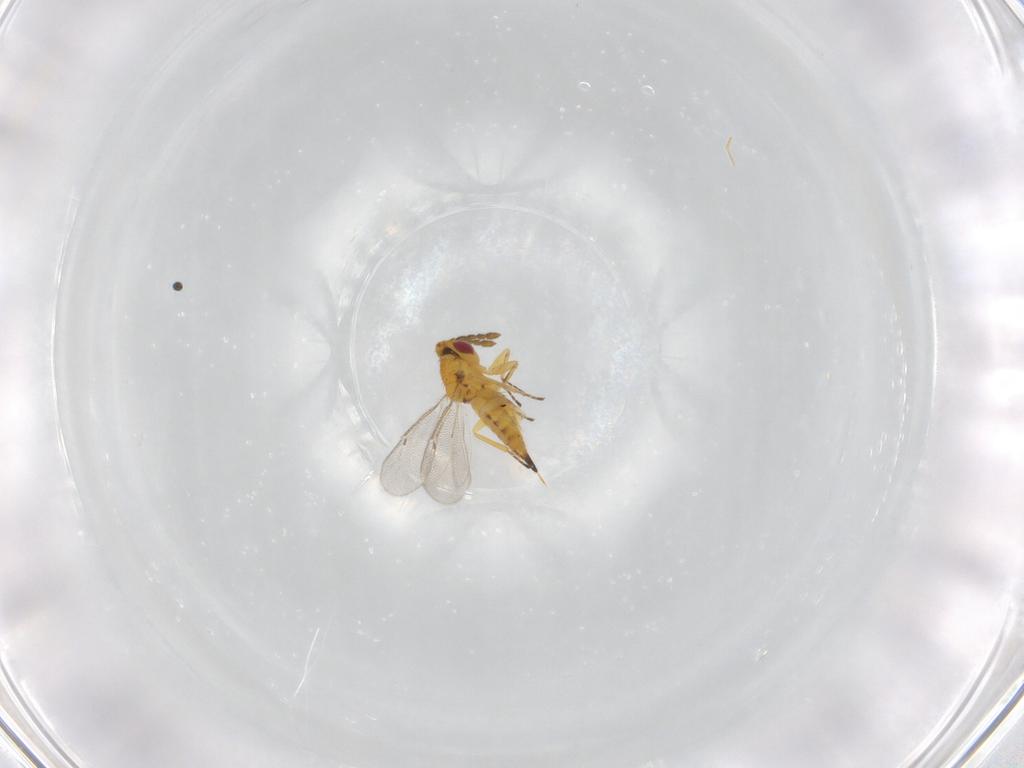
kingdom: Animalia
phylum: Arthropoda
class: Insecta
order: Hymenoptera
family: Eulophidae
